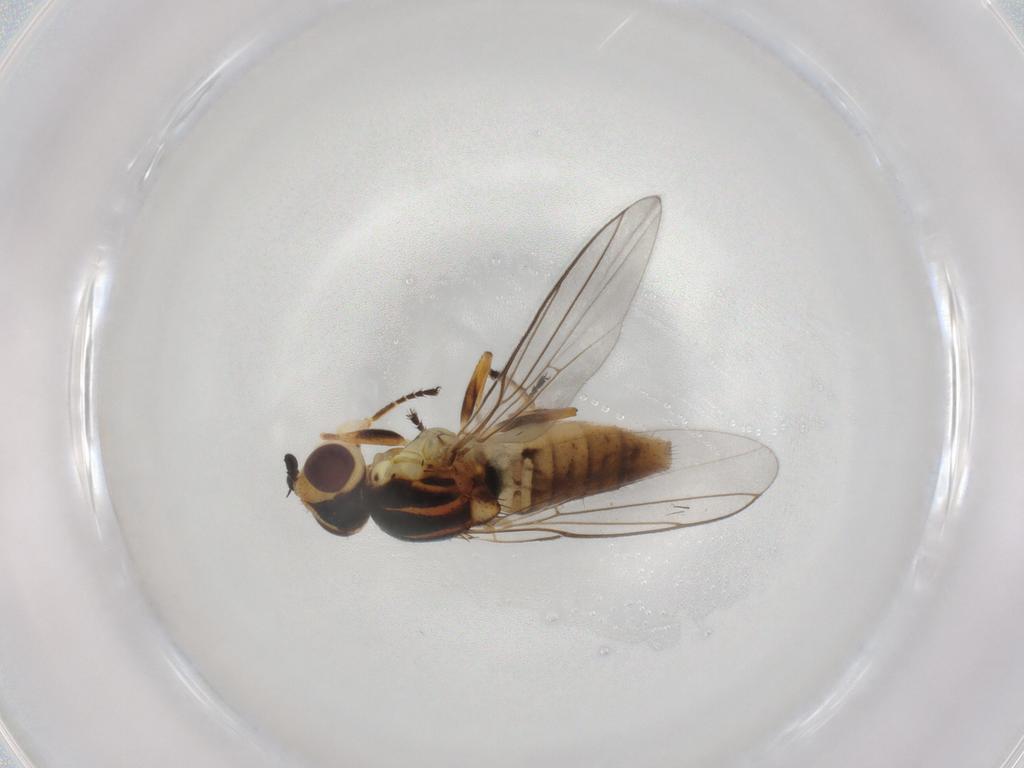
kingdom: Animalia
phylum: Arthropoda
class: Insecta
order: Diptera
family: Chloropidae
